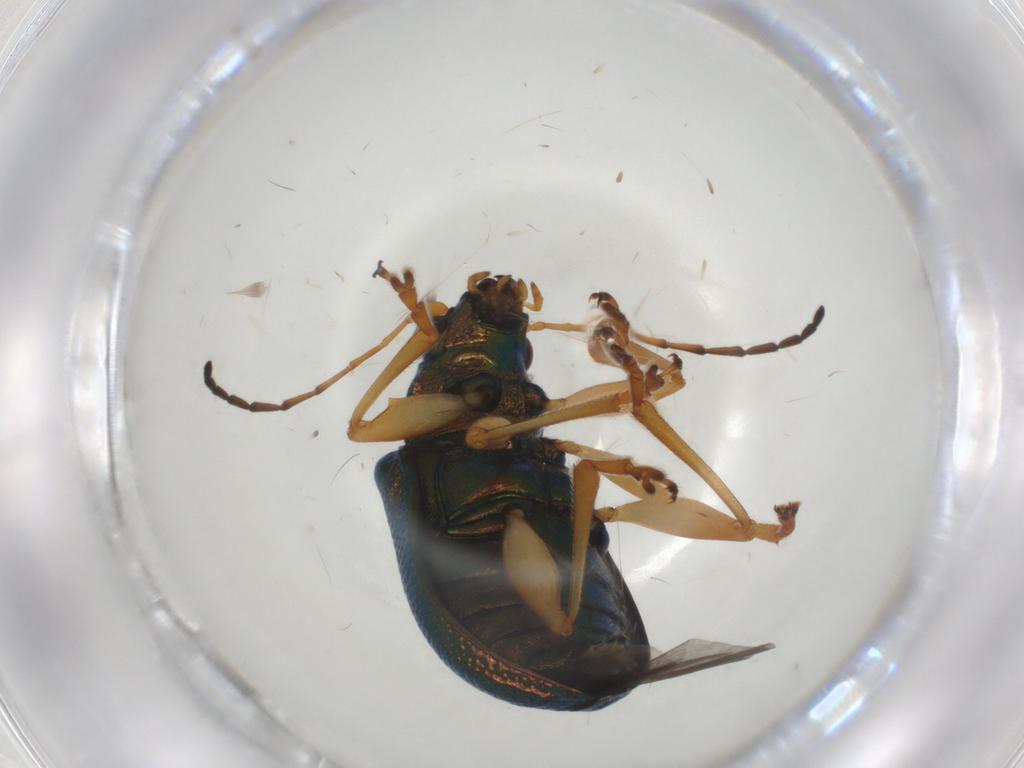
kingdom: Animalia
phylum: Arthropoda
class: Insecta
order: Coleoptera
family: Chrysomelidae
